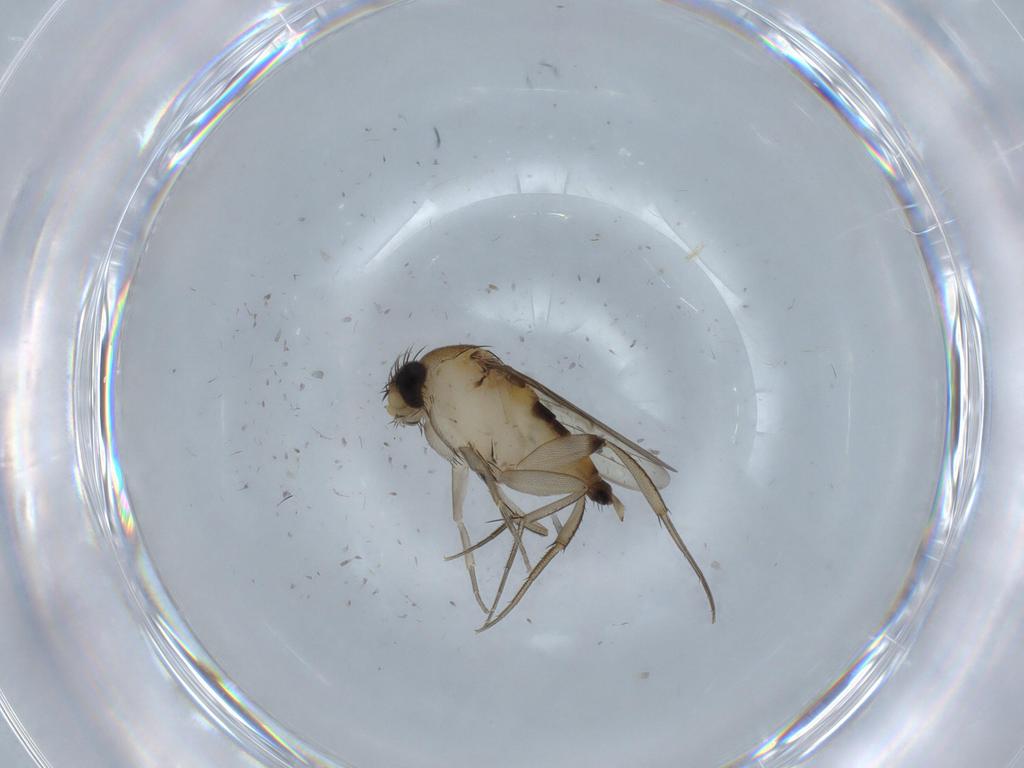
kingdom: Animalia
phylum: Arthropoda
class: Insecta
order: Diptera
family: Phoridae
